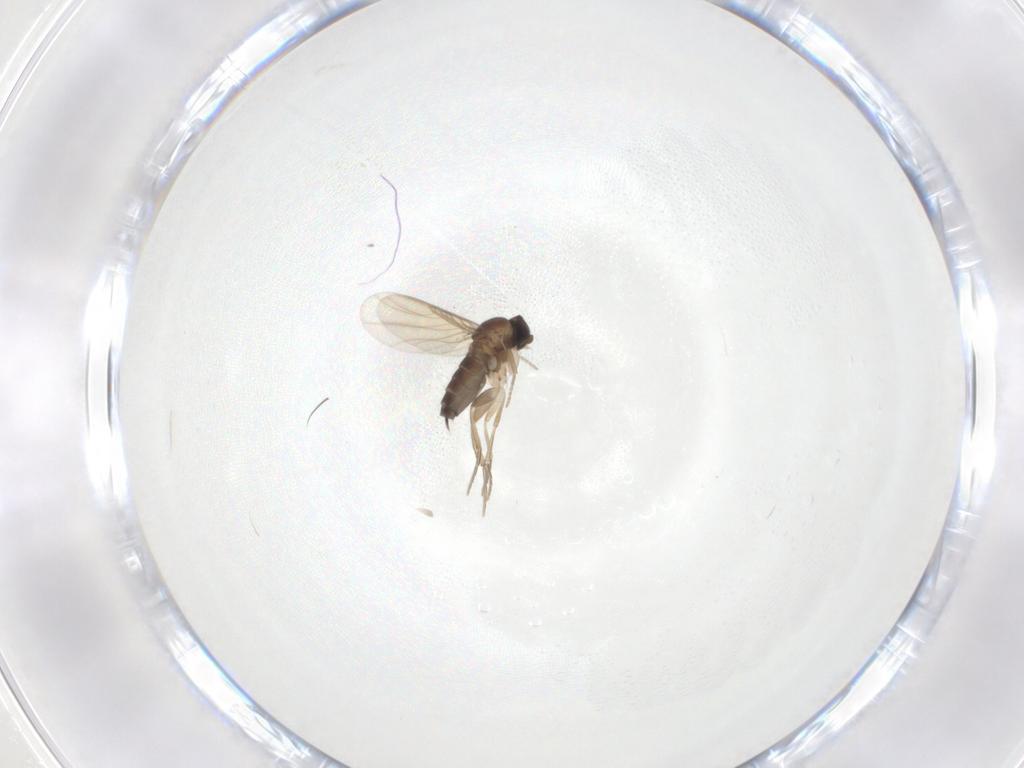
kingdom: Animalia
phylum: Arthropoda
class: Insecta
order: Diptera
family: Phoridae
